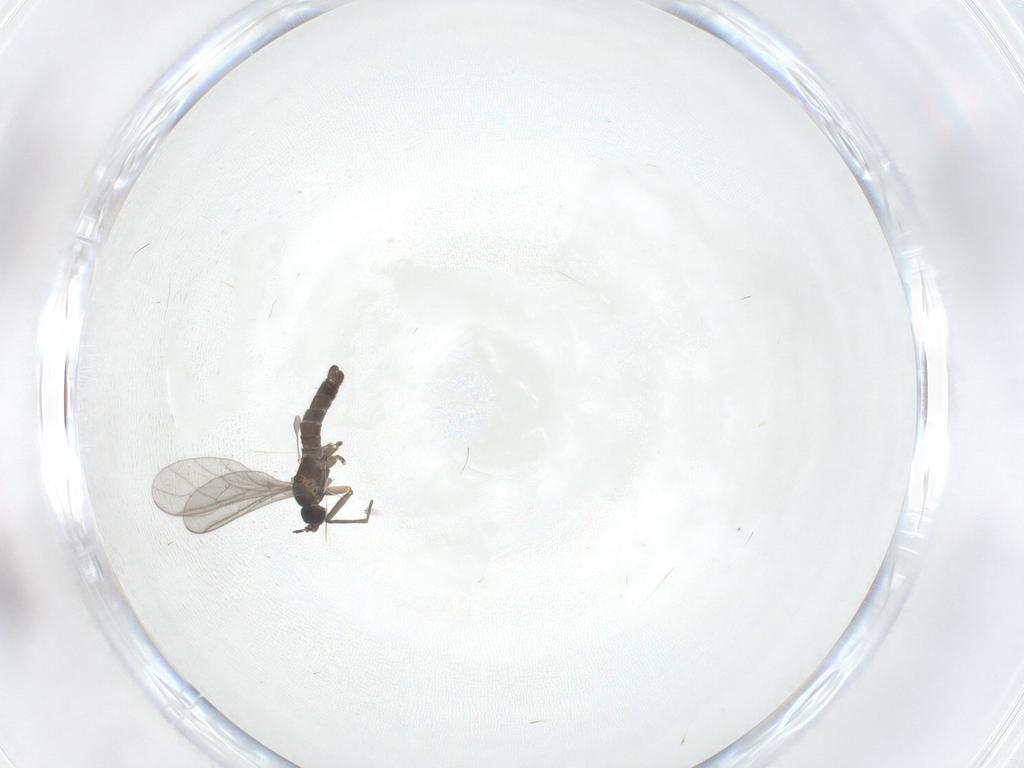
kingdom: Animalia
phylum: Arthropoda
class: Insecta
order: Diptera
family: Sciaridae
